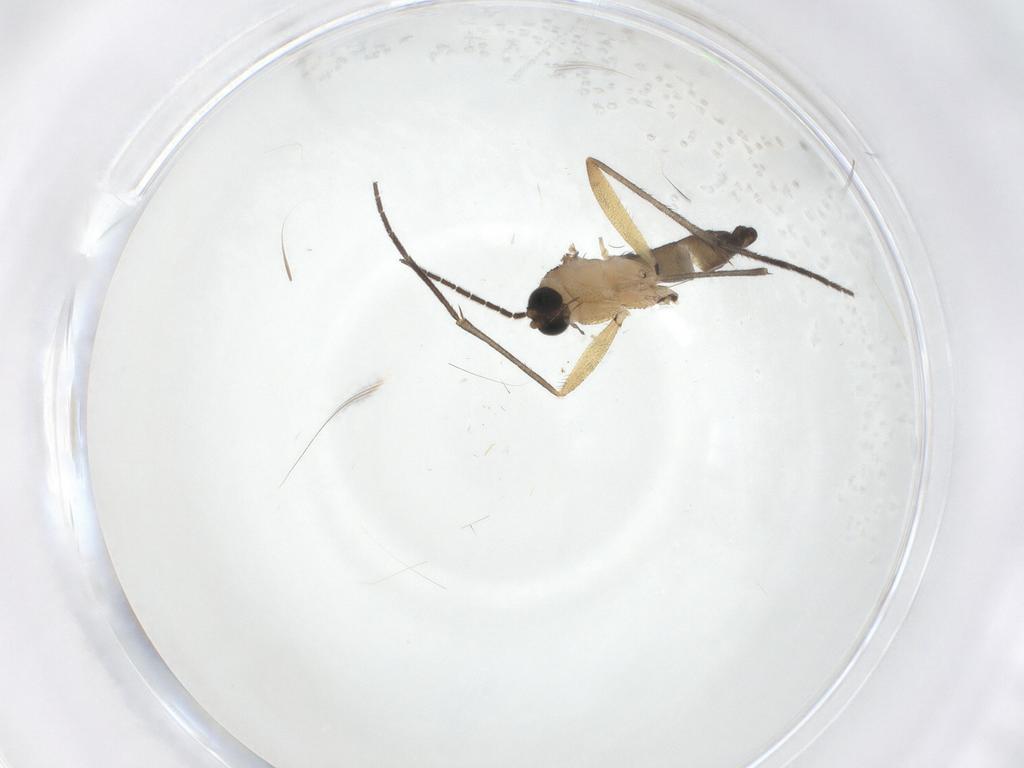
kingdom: Animalia
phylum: Arthropoda
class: Insecta
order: Diptera
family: Sciaridae
